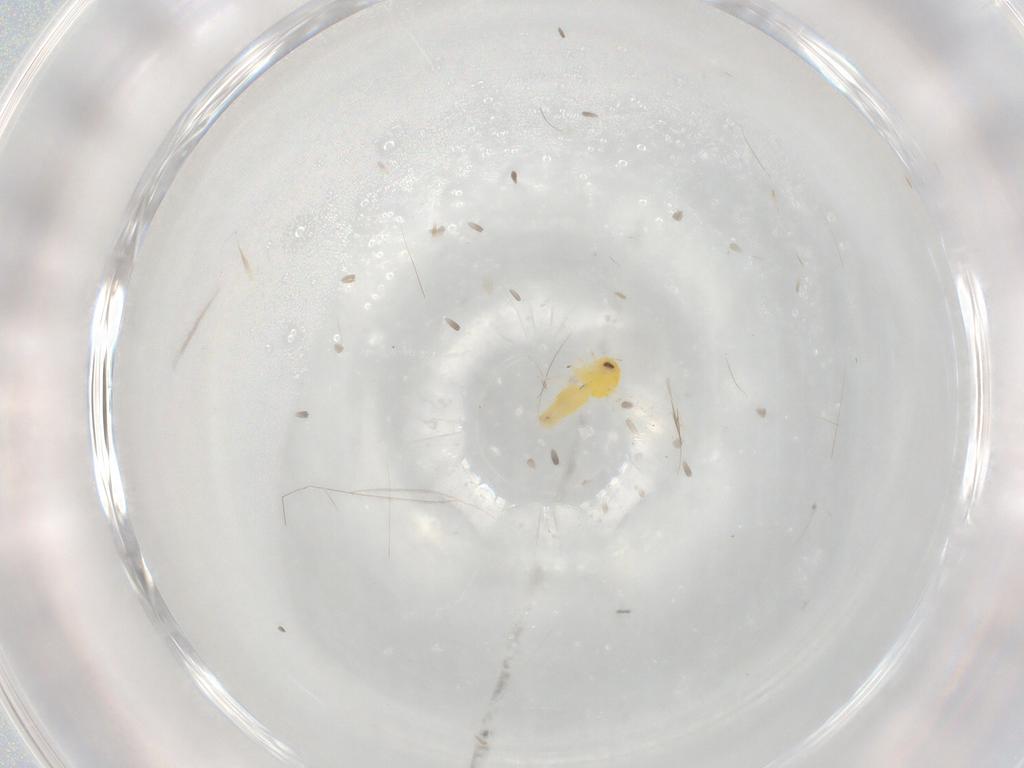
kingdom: Animalia
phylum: Arthropoda
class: Insecta
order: Hemiptera
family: Aleyrodidae
